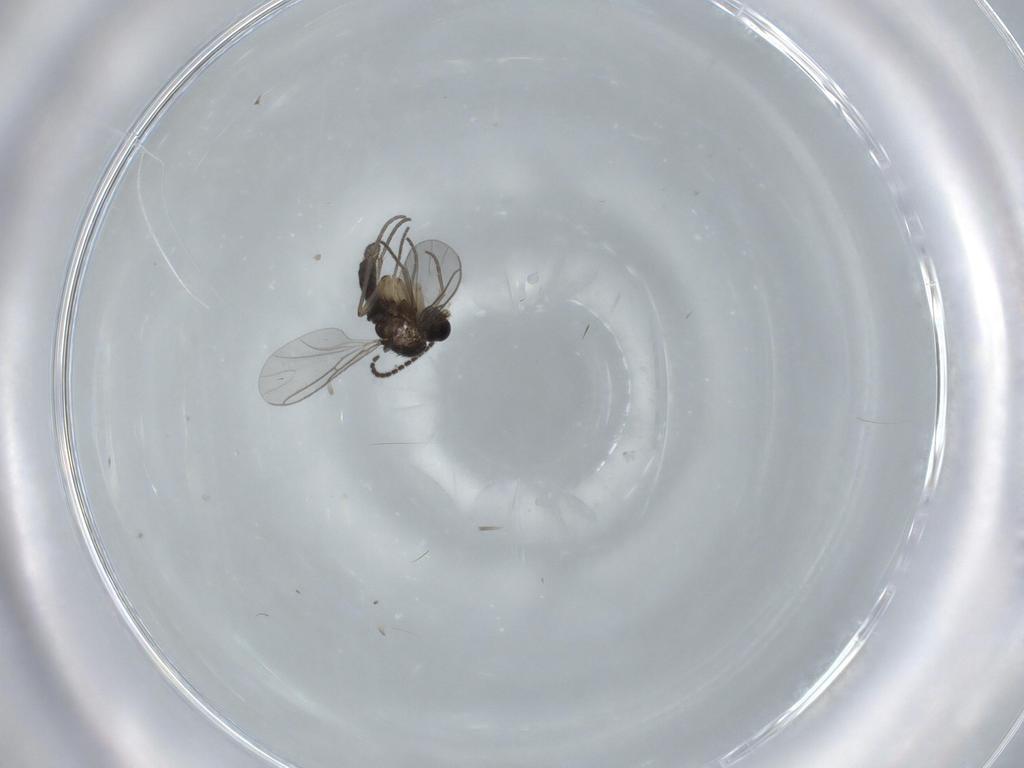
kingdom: Animalia
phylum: Arthropoda
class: Insecta
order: Diptera
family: Sciaridae
